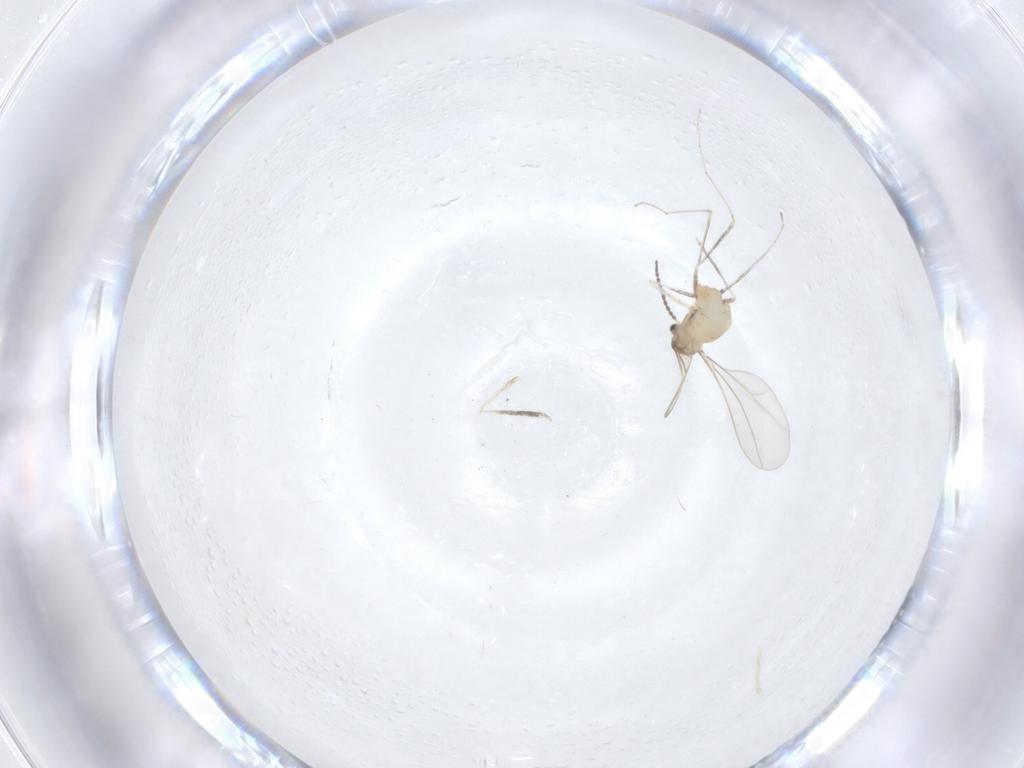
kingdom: Animalia
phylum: Arthropoda
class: Insecta
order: Diptera
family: Cecidomyiidae
